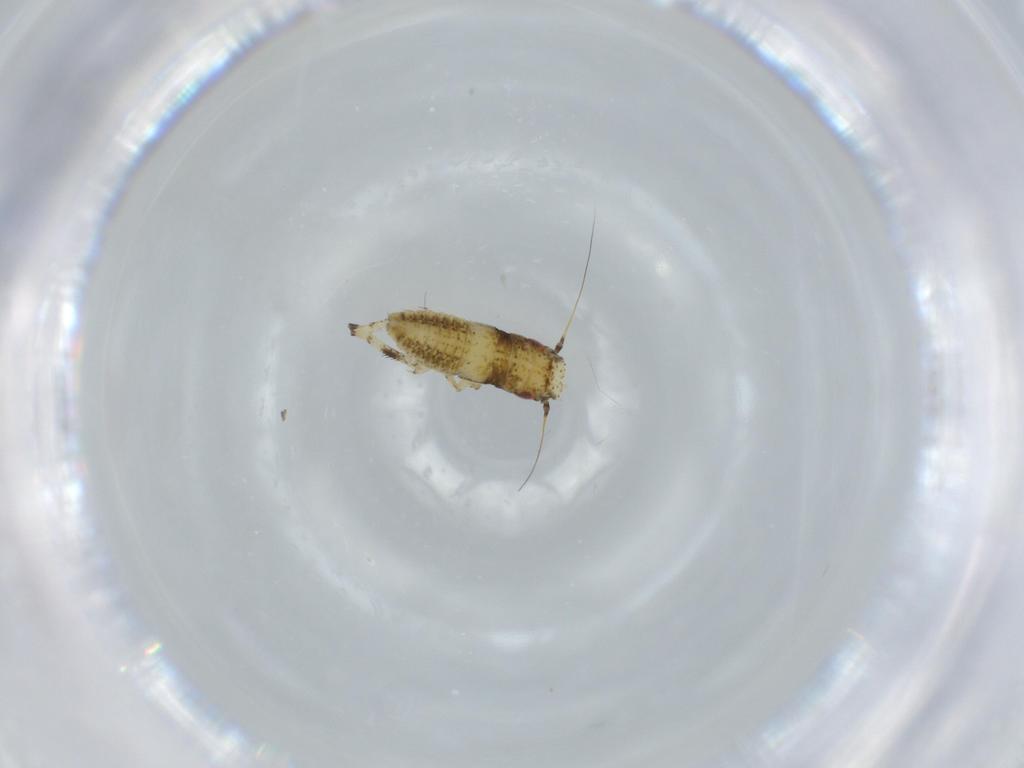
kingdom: Animalia
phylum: Arthropoda
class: Insecta
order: Hemiptera
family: Cicadellidae
